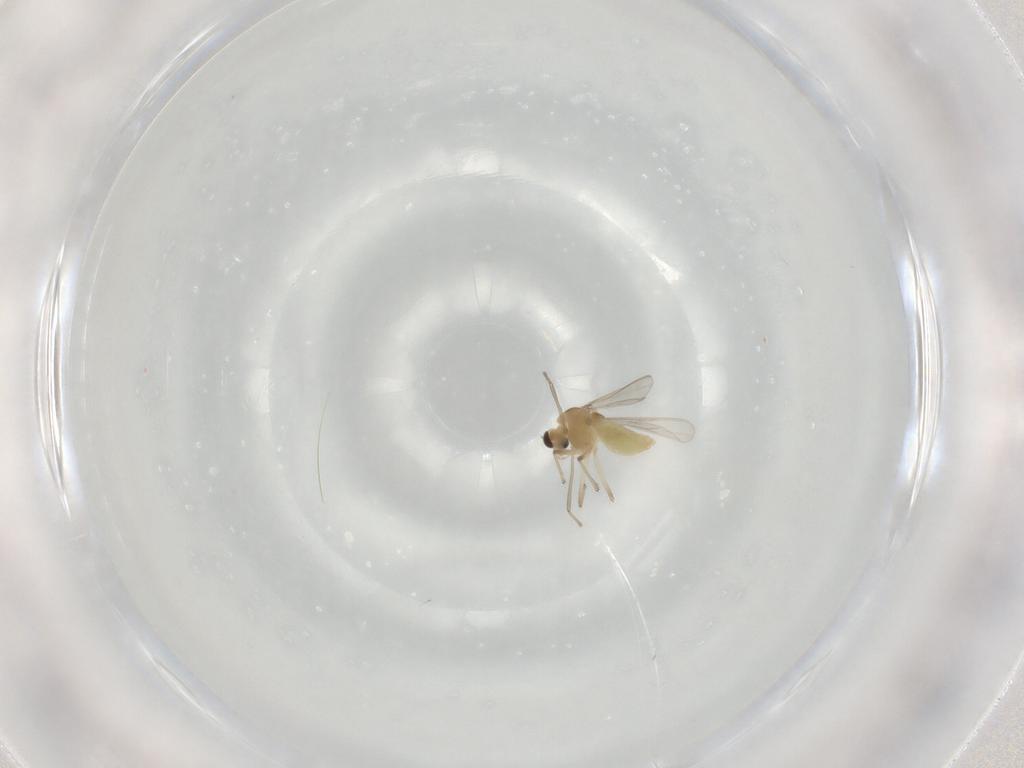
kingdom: Animalia
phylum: Arthropoda
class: Insecta
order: Diptera
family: Chironomidae
